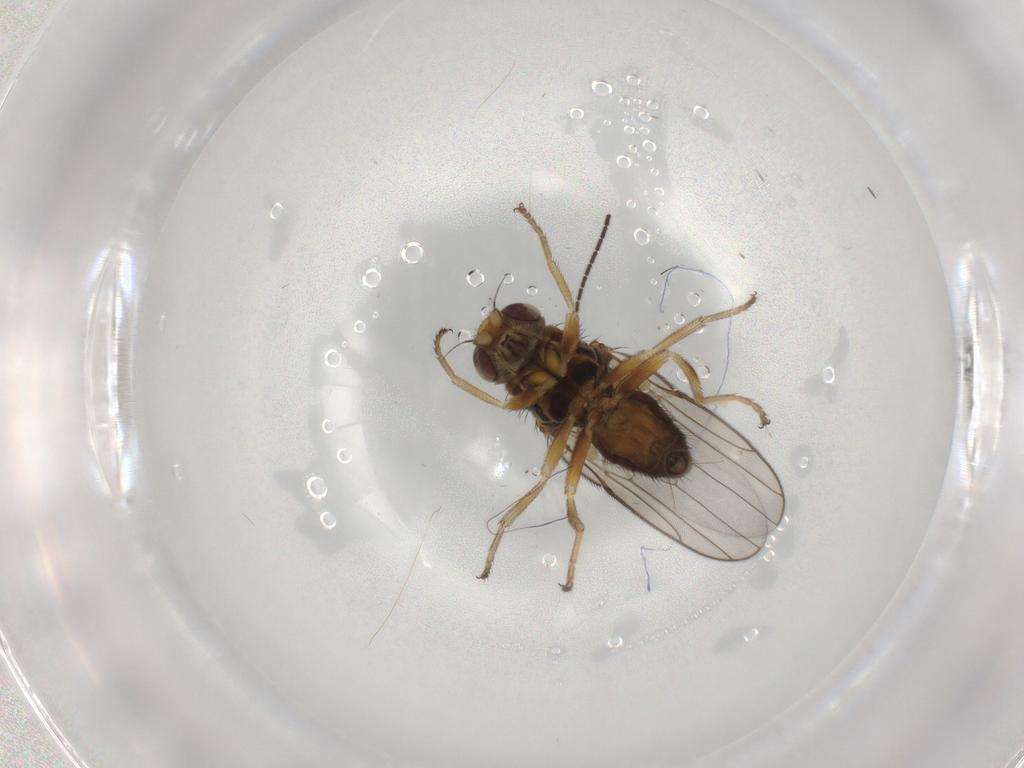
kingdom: Animalia
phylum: Arthropoda
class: Insecta
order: Diptera
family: Chloropidae
